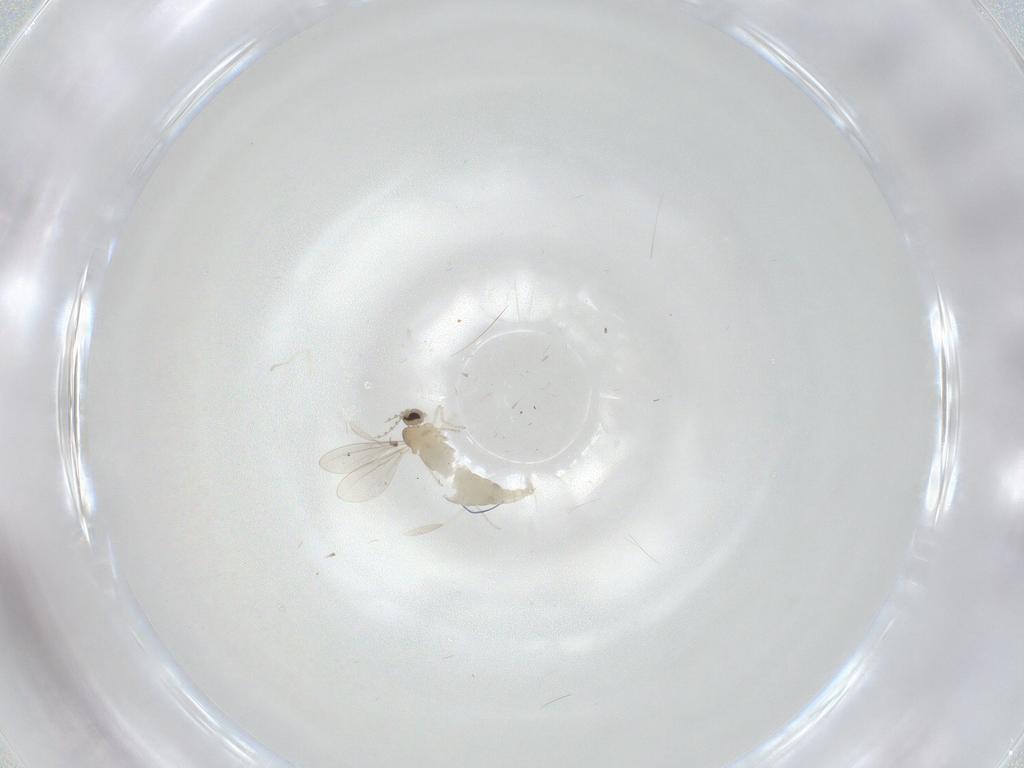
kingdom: Animalia
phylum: Arthropoda
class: Insecta
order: Diptera
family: Cecidomyiidae
